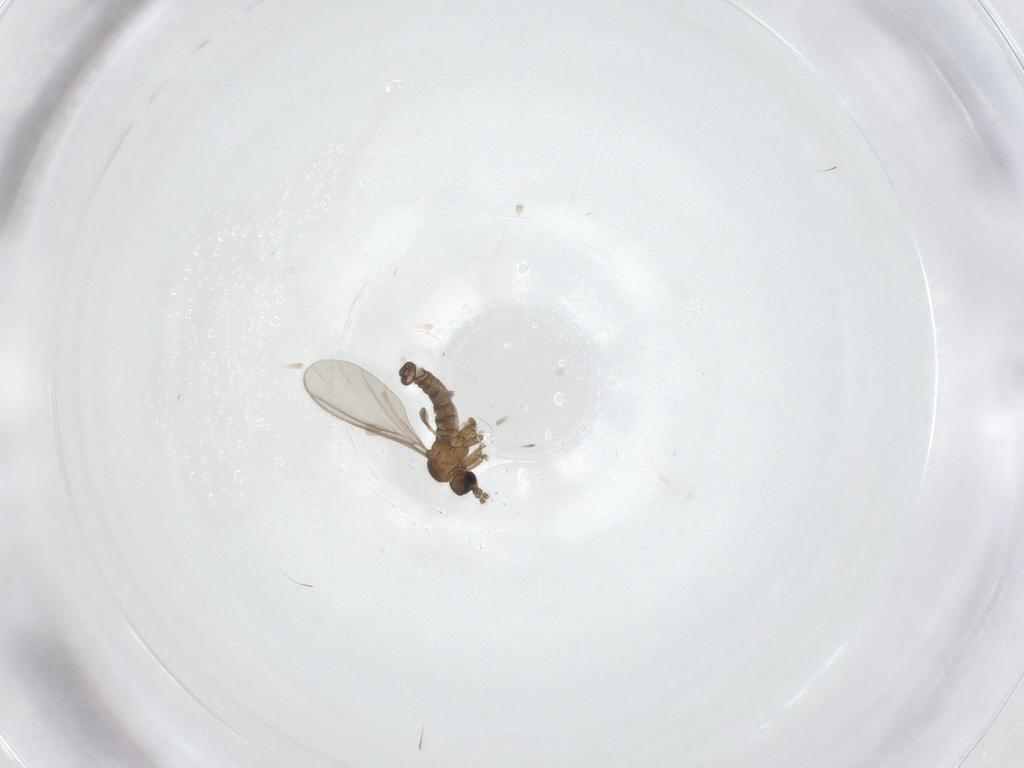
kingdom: Animalia
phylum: Arthropoda
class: Insecta
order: Diptera
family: Sciaridae
